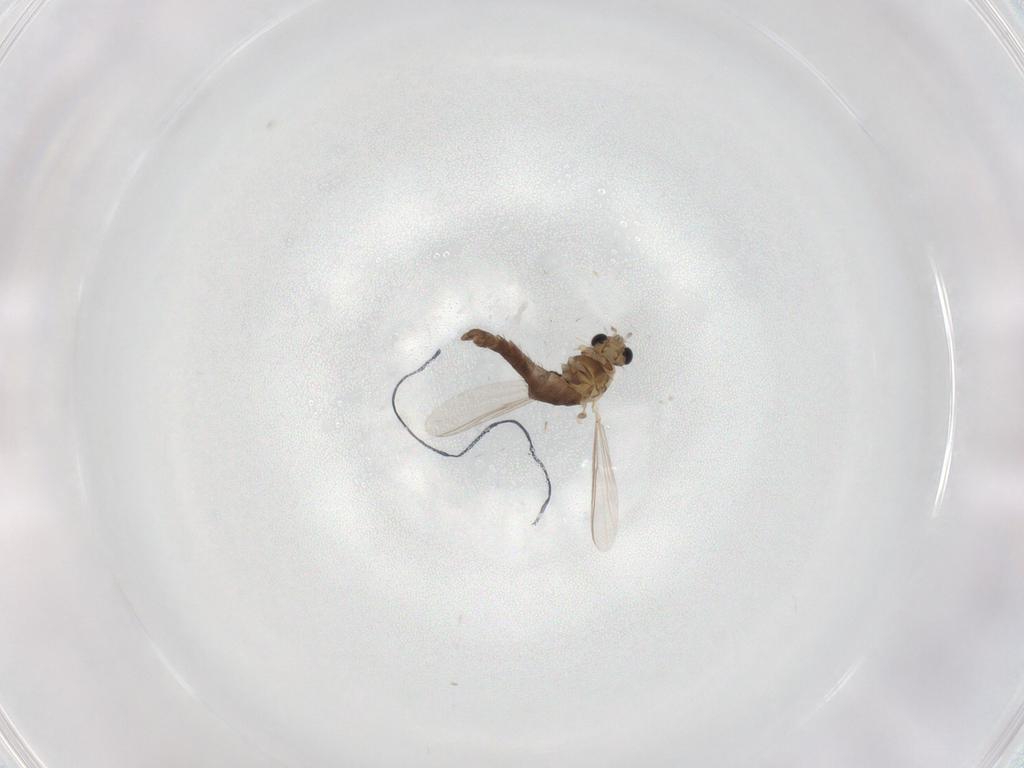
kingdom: Animalia
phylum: Arthropoda
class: Insecta
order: Diptera
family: Chironomidae
